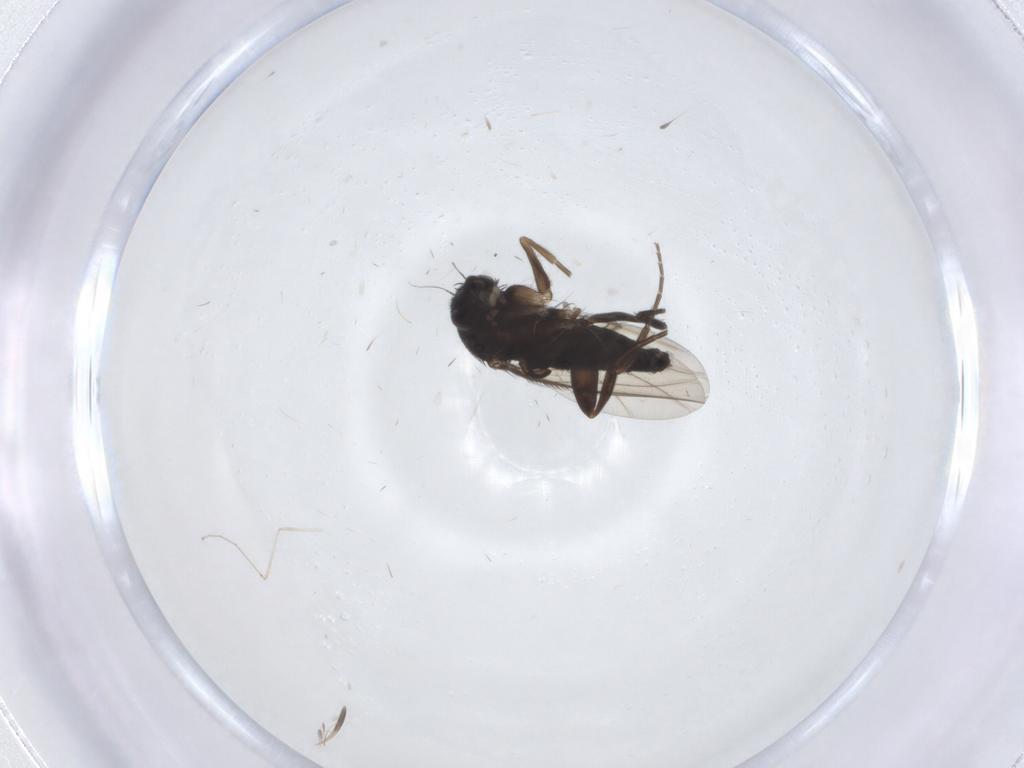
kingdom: Animalia
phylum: Arthropoda
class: Insecta
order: Diptera
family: Phoridae
